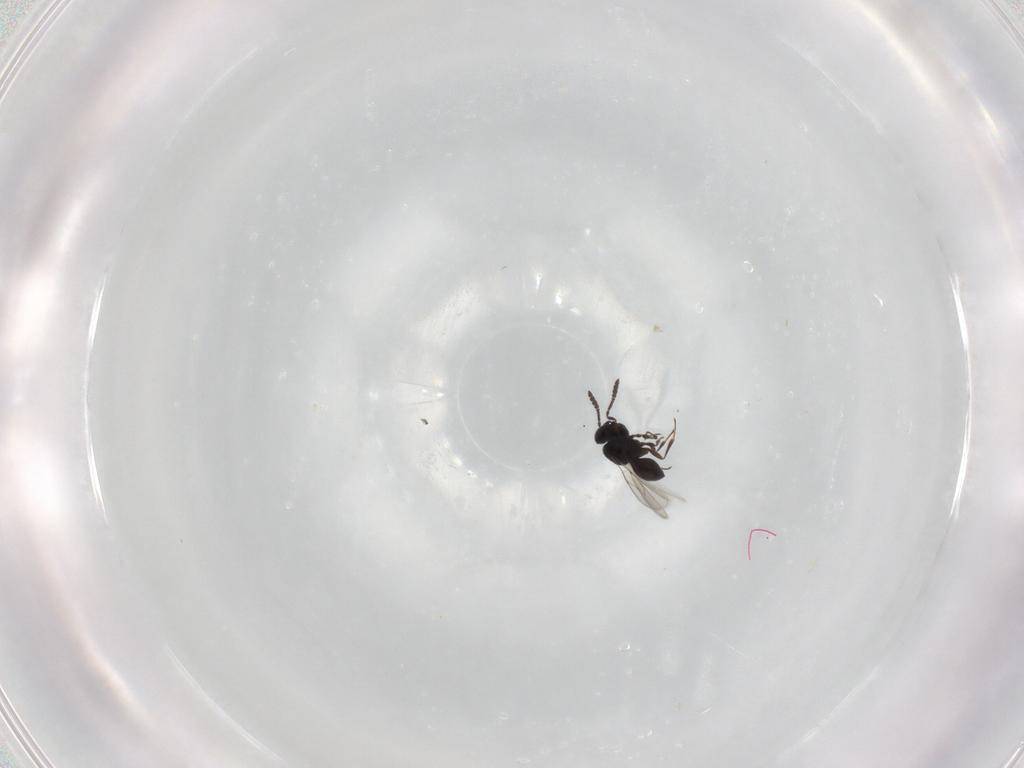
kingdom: Animalia
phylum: Arthropoda
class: Insecta
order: Hymenoptera
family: Scelionidae
